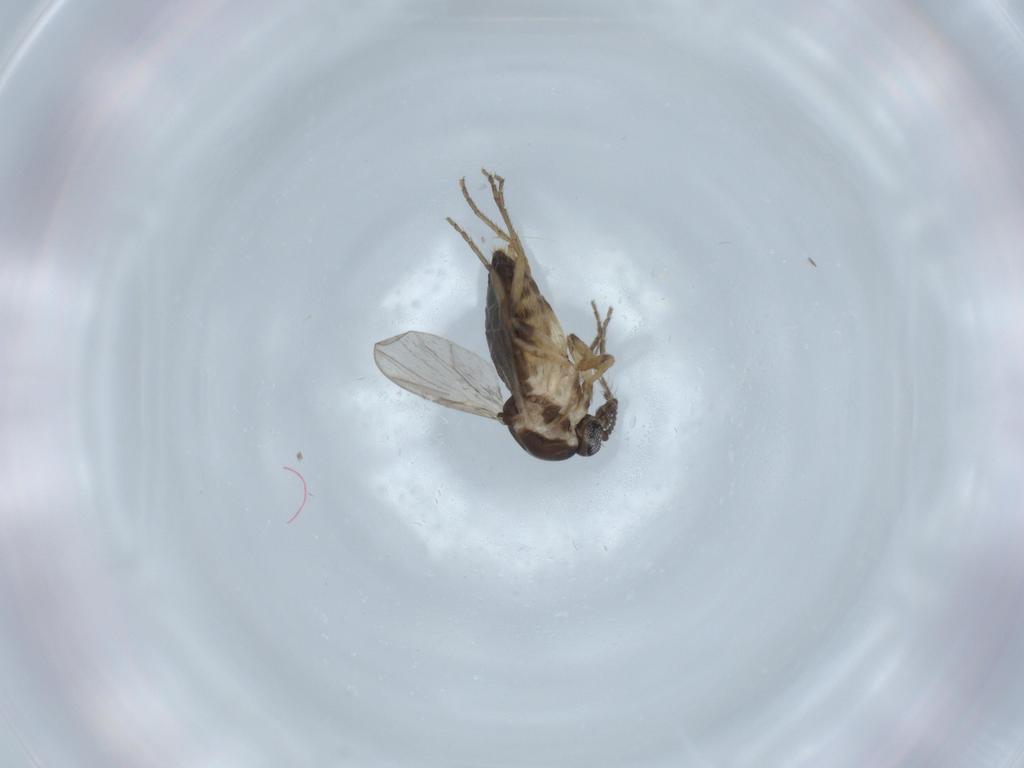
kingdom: Animalia
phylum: Arthropoda
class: Insecta
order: Diptera
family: Ceratopogonidae
